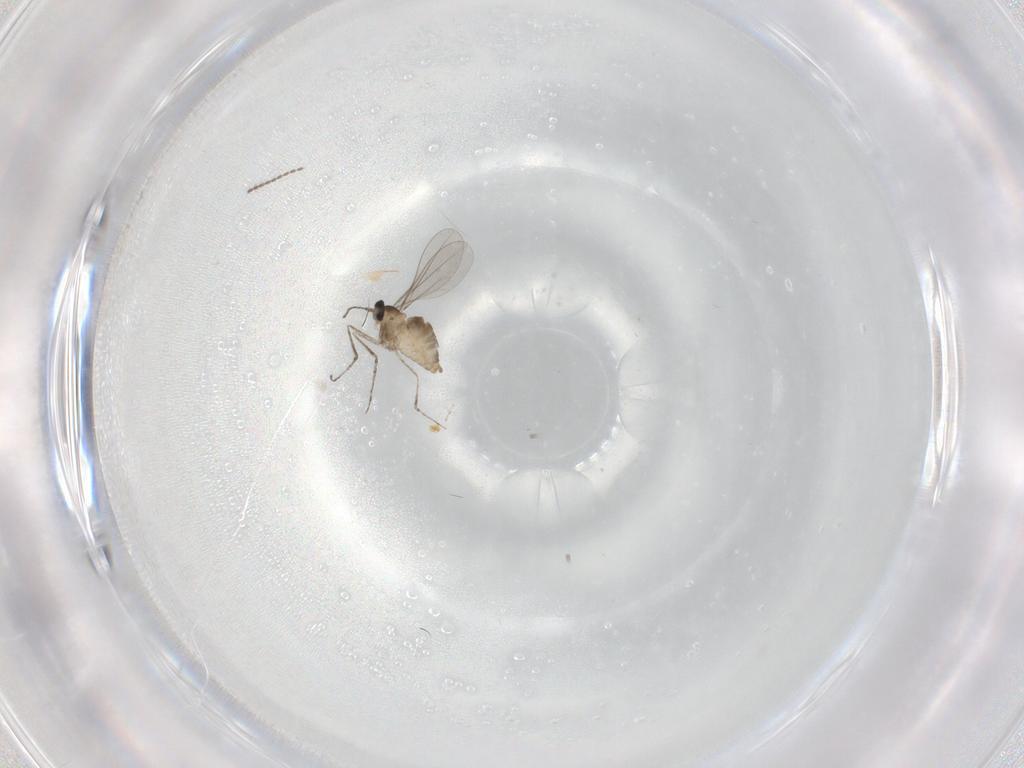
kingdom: Animalia
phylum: Arthropoda
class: Insecta
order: Diptera
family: Cecidomyiidae
